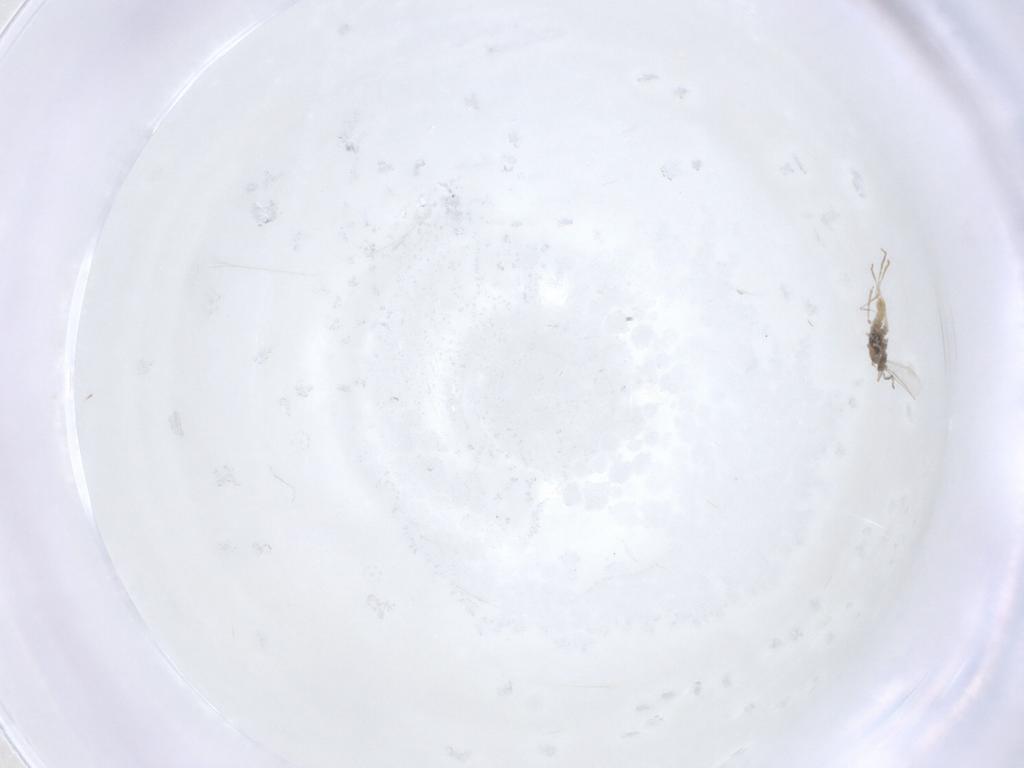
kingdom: Animalia
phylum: Arthropoda
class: Insecta
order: Diptera
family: Cecidomyiidae
